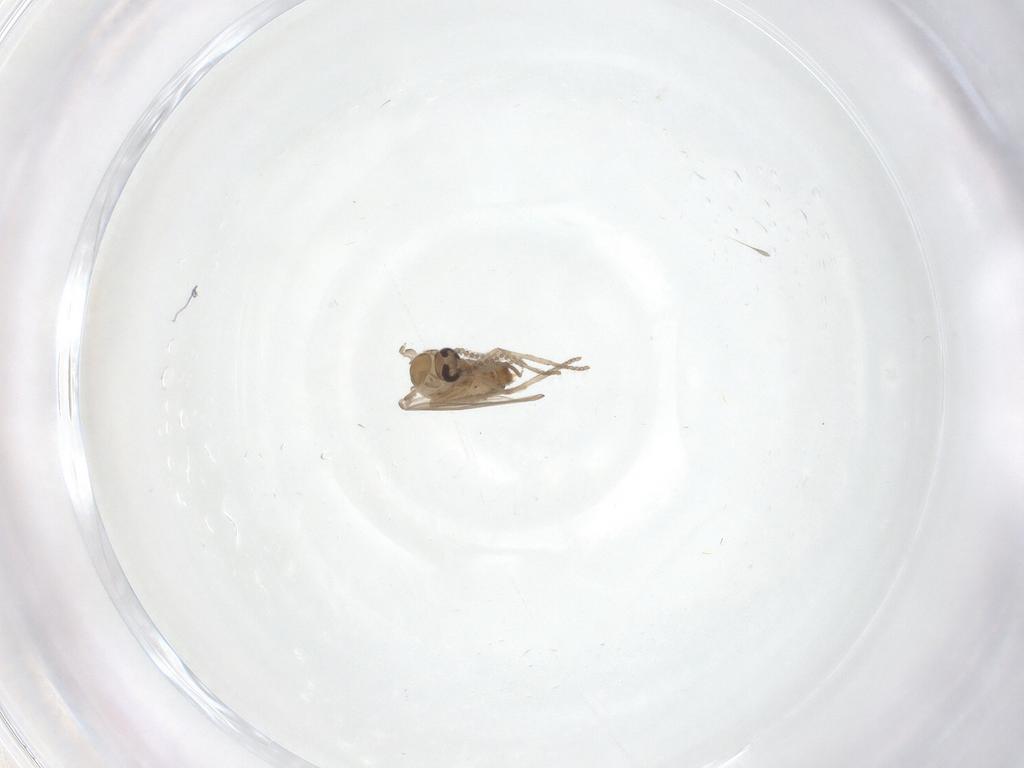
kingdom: Animalia
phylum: Arthropoda
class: Insecta
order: Diptera
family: Psychodidae
